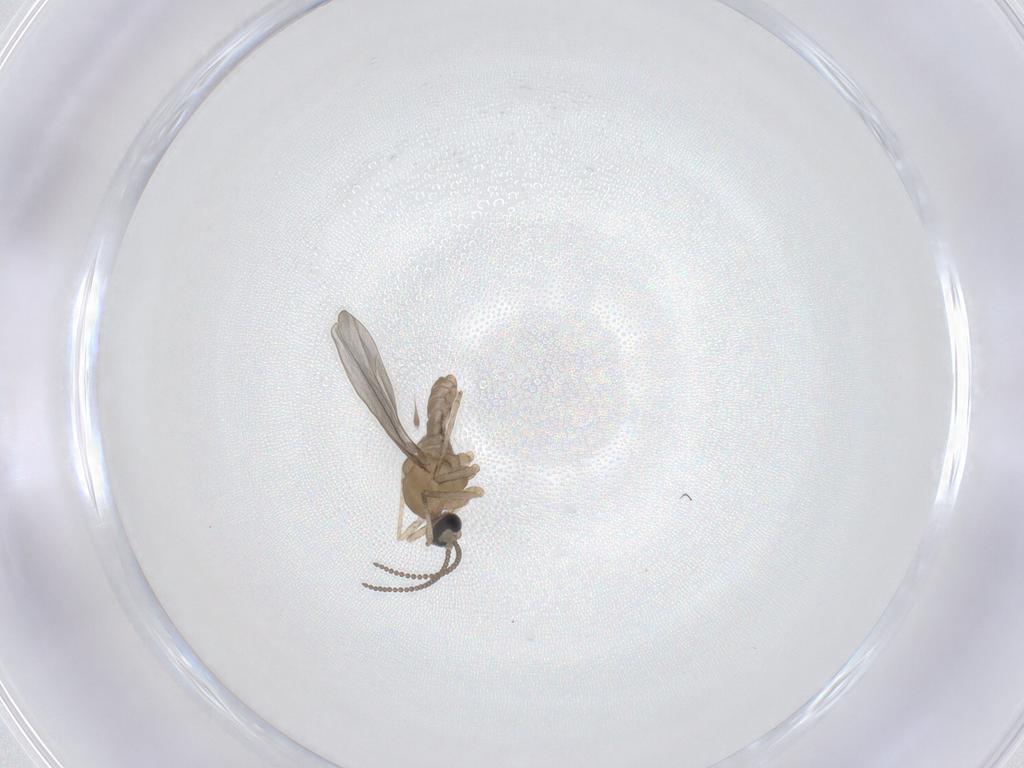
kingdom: Animalia
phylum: Arthropoda
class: Insecta
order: Diptera
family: Cecidomyiidae
